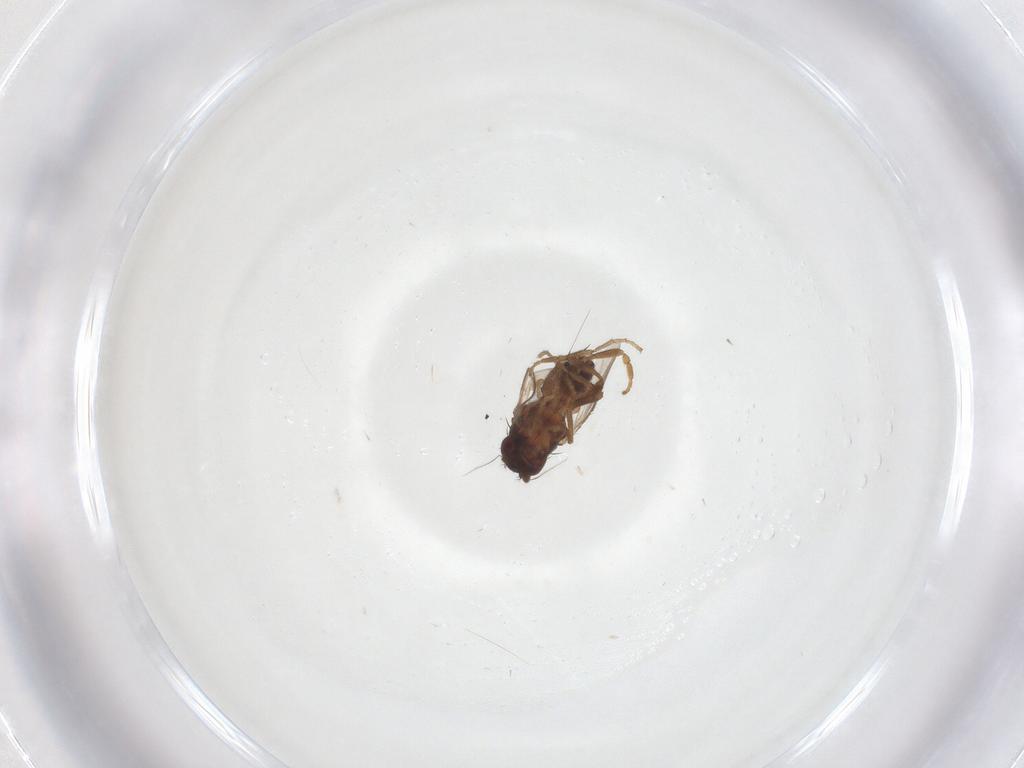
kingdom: Animalia
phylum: Arthropoda
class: Insecta
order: Diptera
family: Sphaeroceridae
